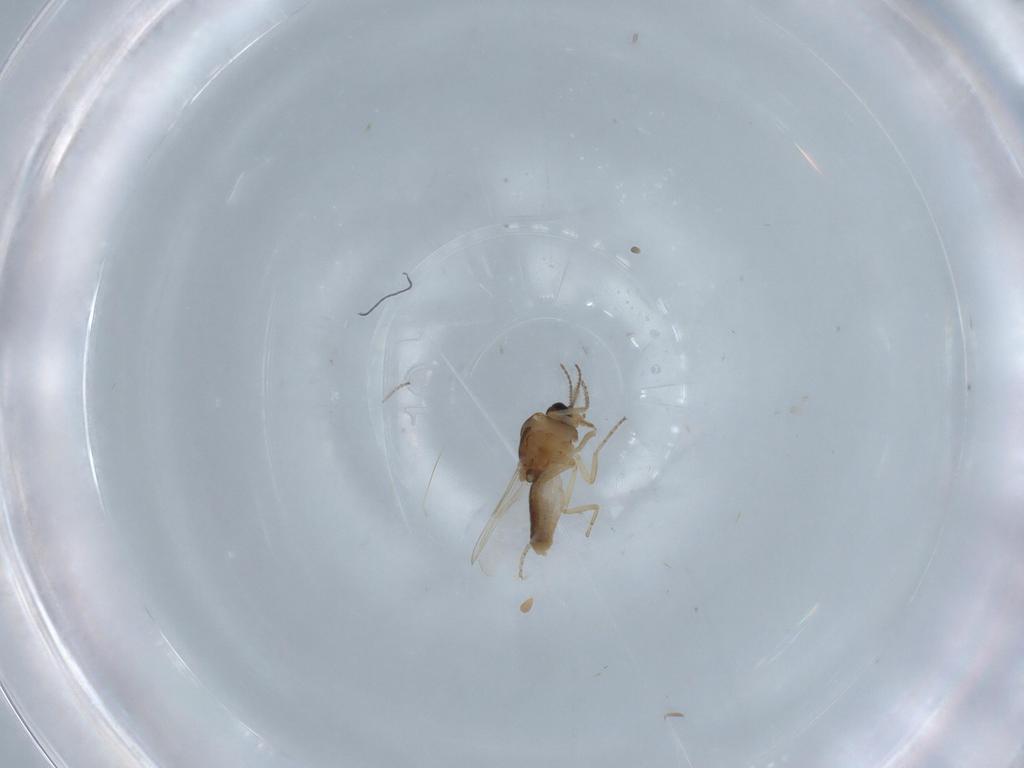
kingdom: Animalia
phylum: Arthropoda
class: Insecta
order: Diptera
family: Ceratopogonidae
